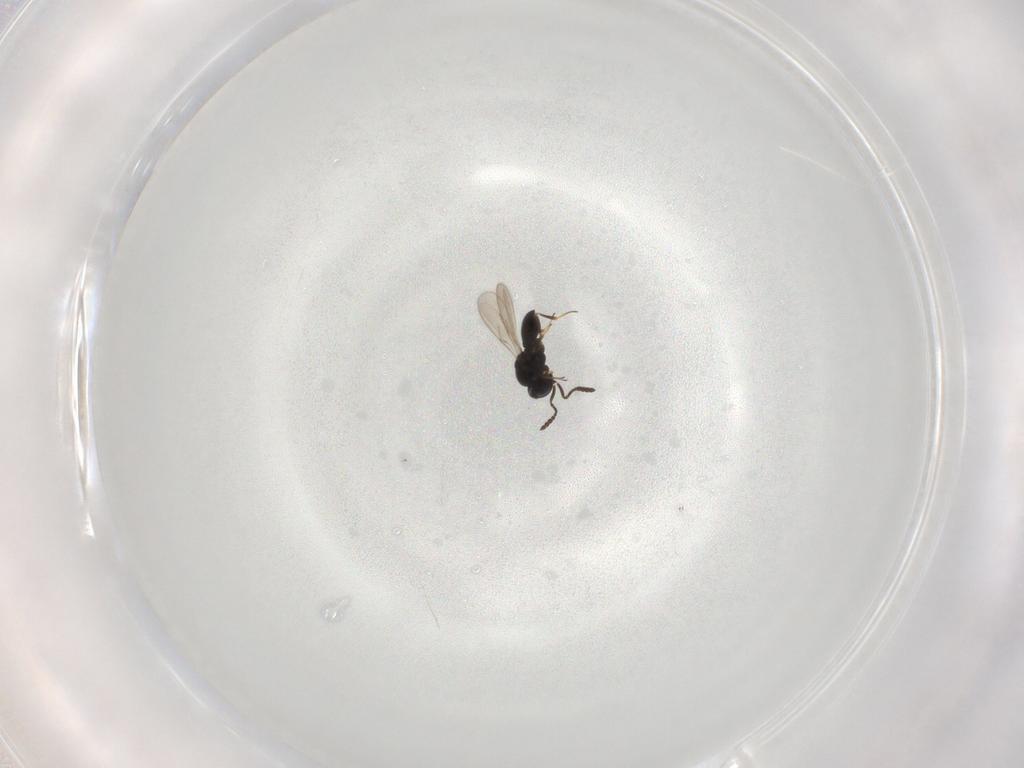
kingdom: Animalia
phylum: Arthropoda
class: Insecta
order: Hymenoptera
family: Scelionidae
